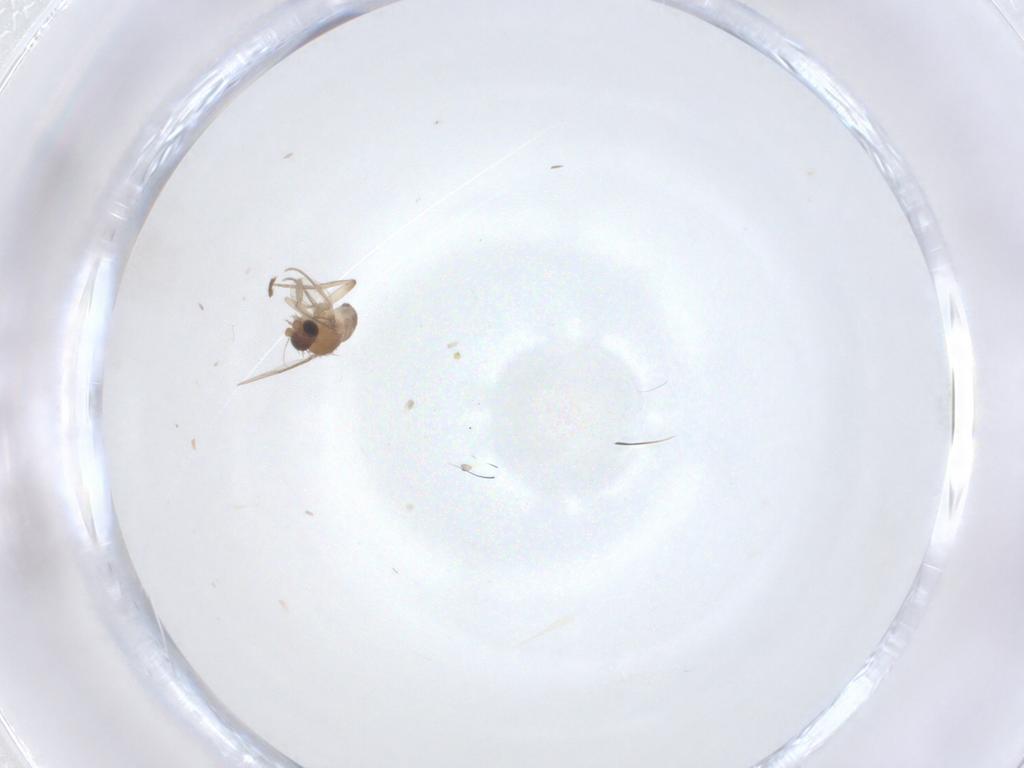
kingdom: Animalia
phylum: Arthropoda
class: Insecta
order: Diptera
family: Phoridae
